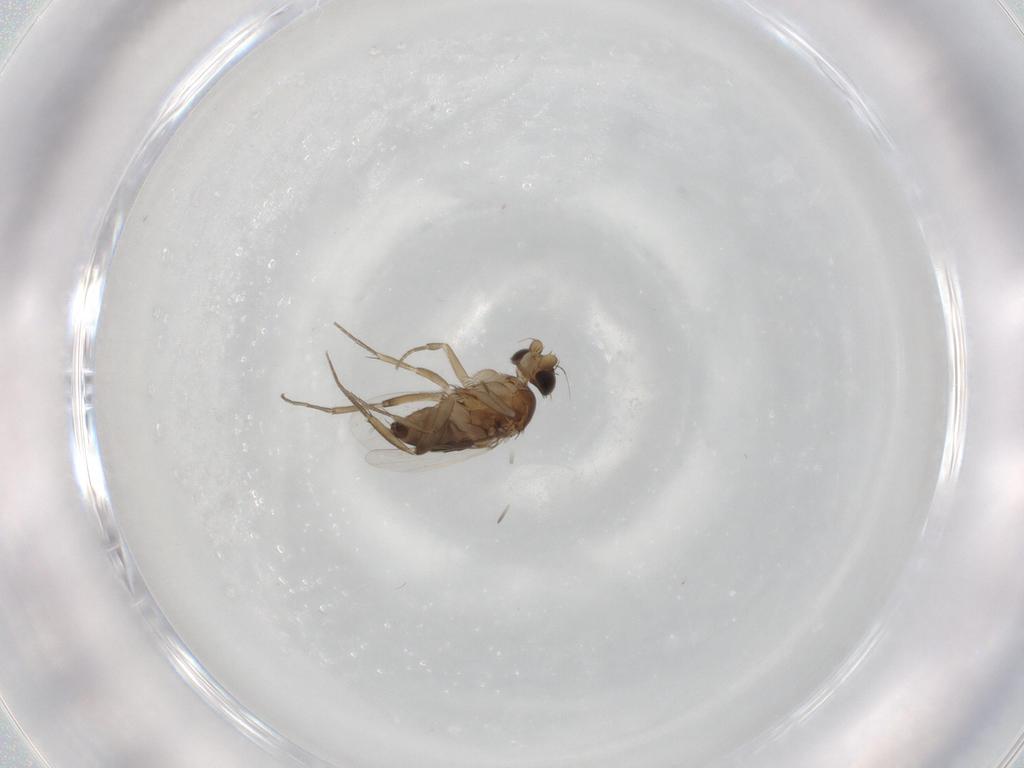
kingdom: Animalia
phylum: Arthropoda
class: Insecta
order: Diptera
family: Phoridae
